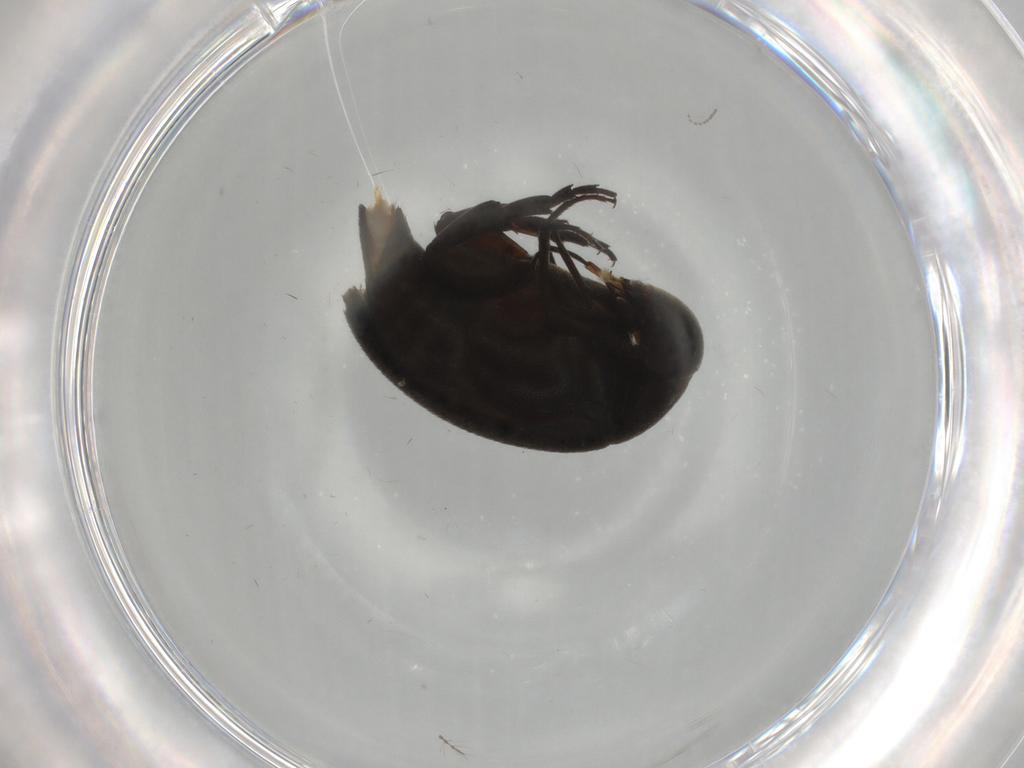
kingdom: Animalia
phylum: Arthropoda
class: Insecta
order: Coleoptera
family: Mordellidae
